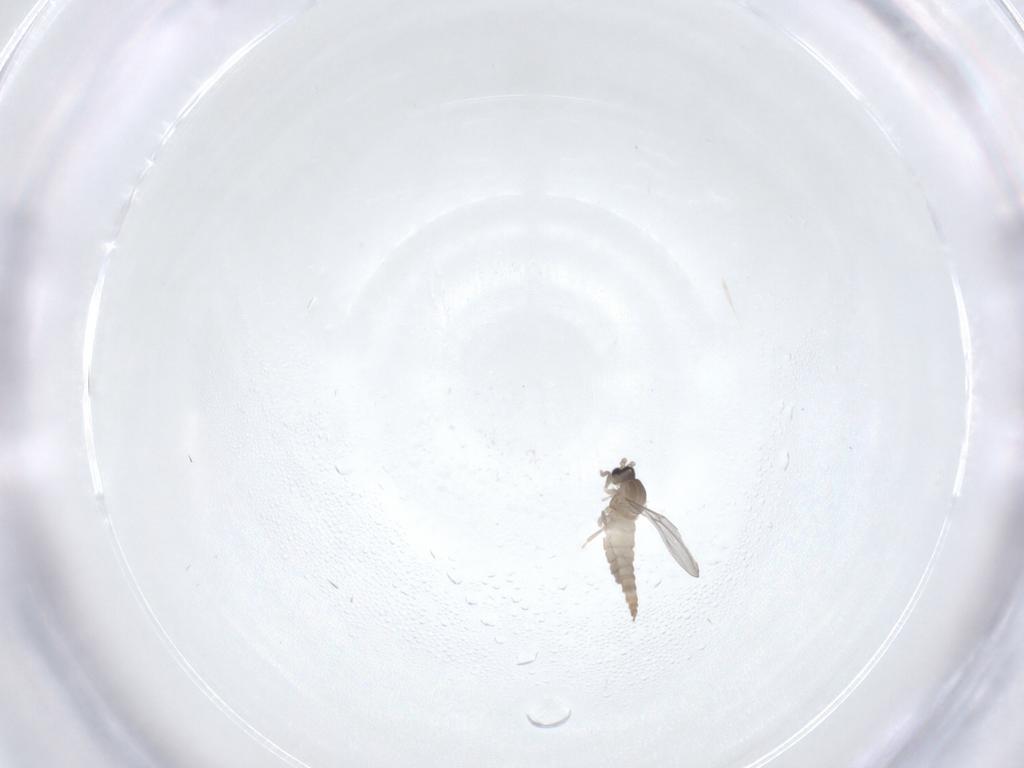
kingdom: Animalia
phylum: Arthropoda
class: Insecta
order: Diptera
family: Cecidomyiidae
